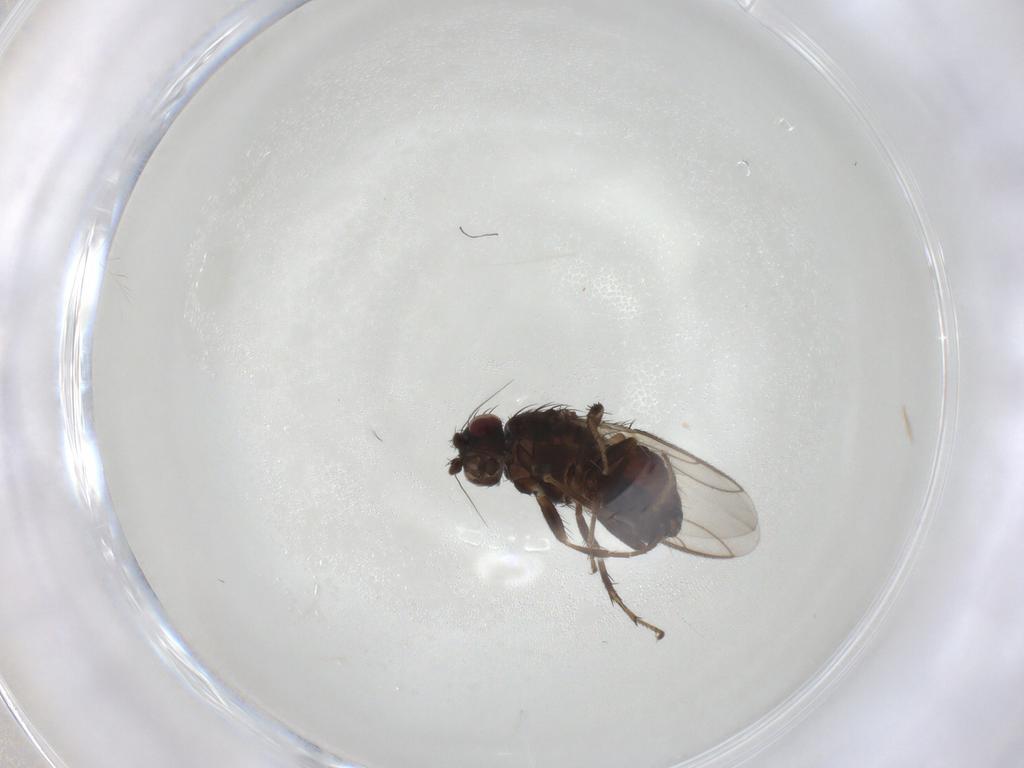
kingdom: Animalia
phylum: Arthropoda
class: Insecta
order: Diptera
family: Sphaeroceridae
